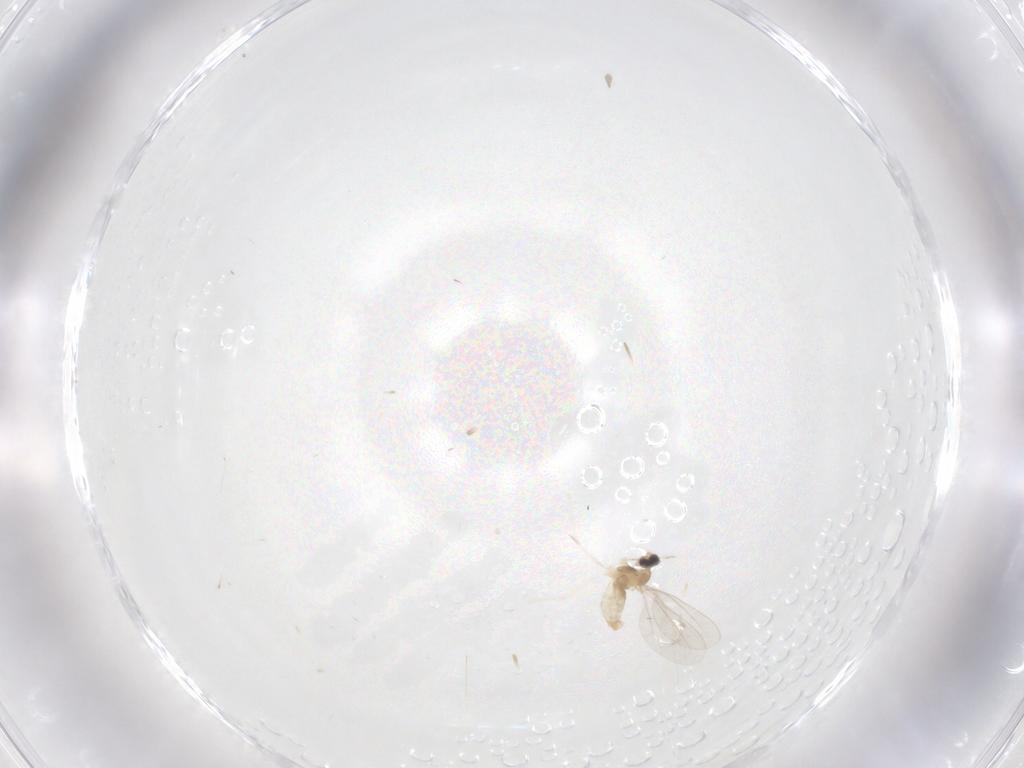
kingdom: Animalia
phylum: Arthropoda
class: Insecta
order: Diptera
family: Cecidomyiidae
